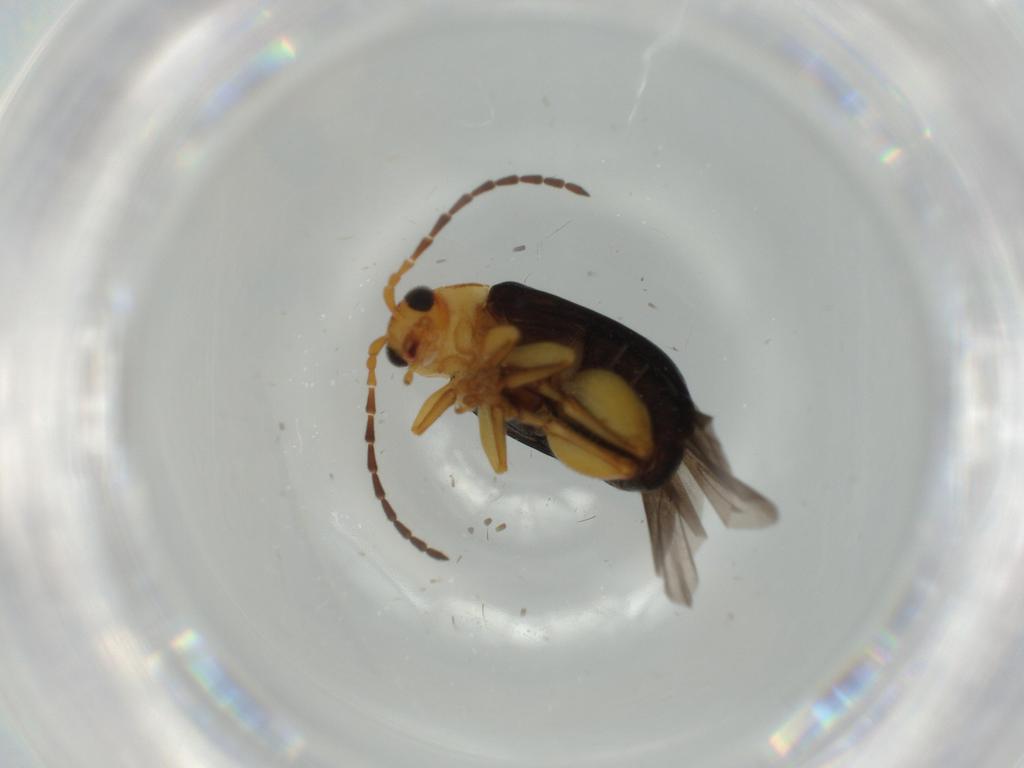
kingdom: Animalia
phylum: Arthropoda
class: Insecta
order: Coleoptera
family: Chrysomelidae
